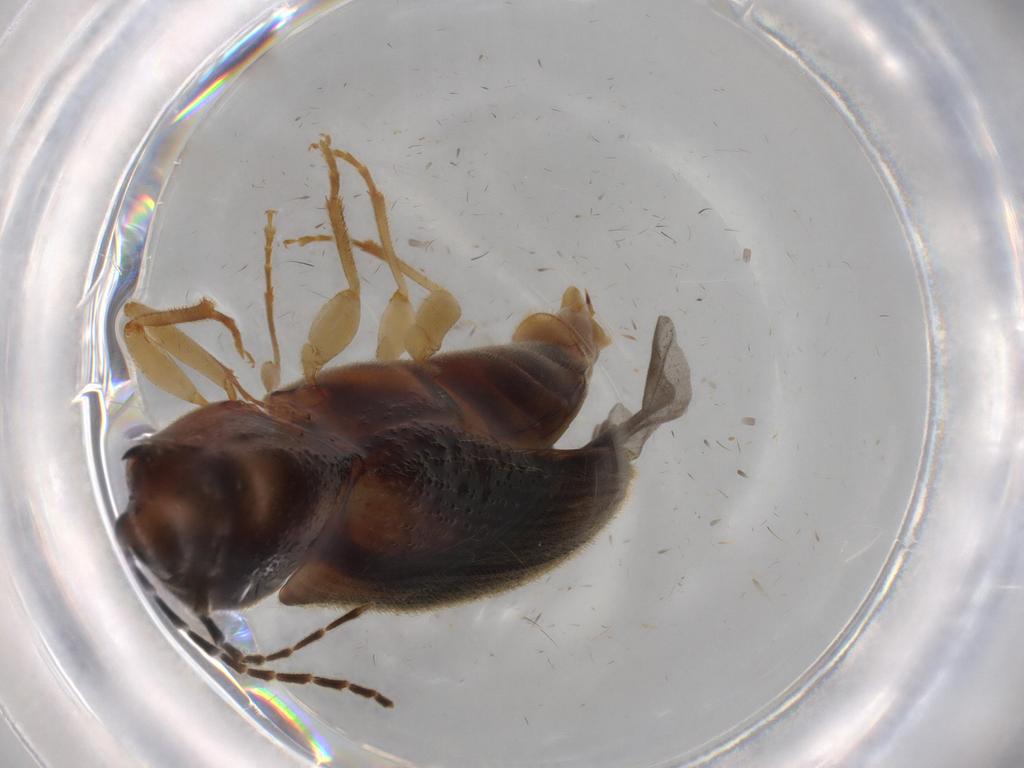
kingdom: Animalia
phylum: Arthropoda
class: Insecta
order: Coleoptera
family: Elateridae
